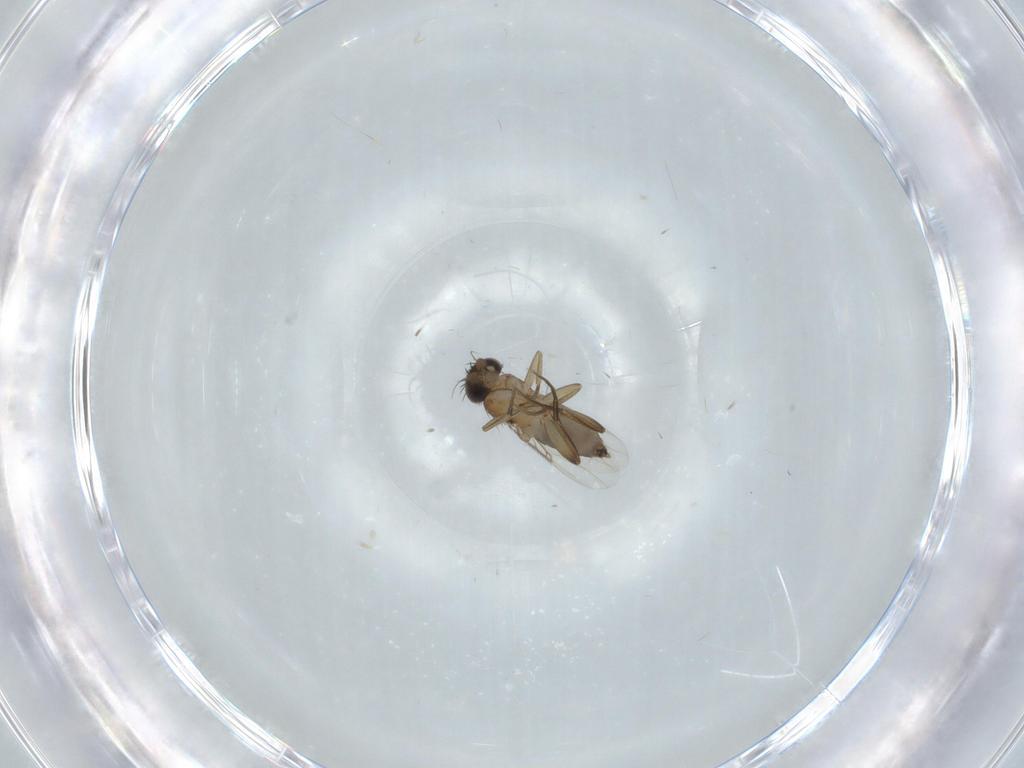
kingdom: Animalia
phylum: Arthropoda
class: Insecta
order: Diptera
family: Phoridae
